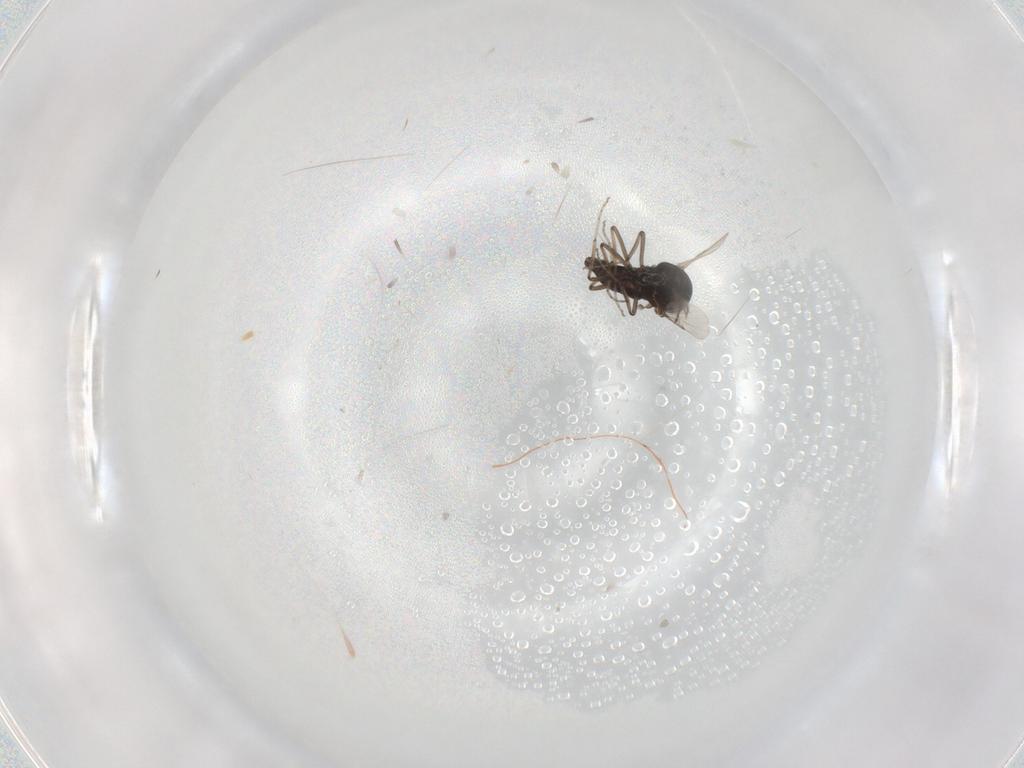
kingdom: Animalia
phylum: Arthropoda
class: Insecta
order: Diptera
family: Ceratopogonidae
